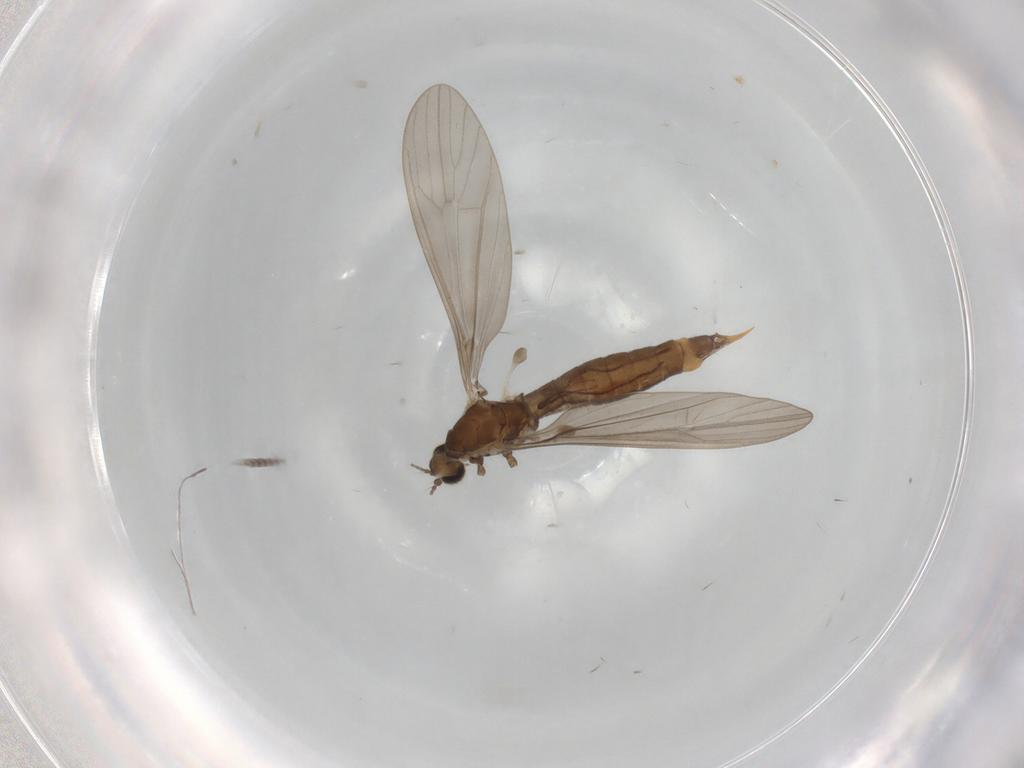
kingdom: Animalia
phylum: Arthropoda
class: Insecta
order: Diptera
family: Limoniidae
